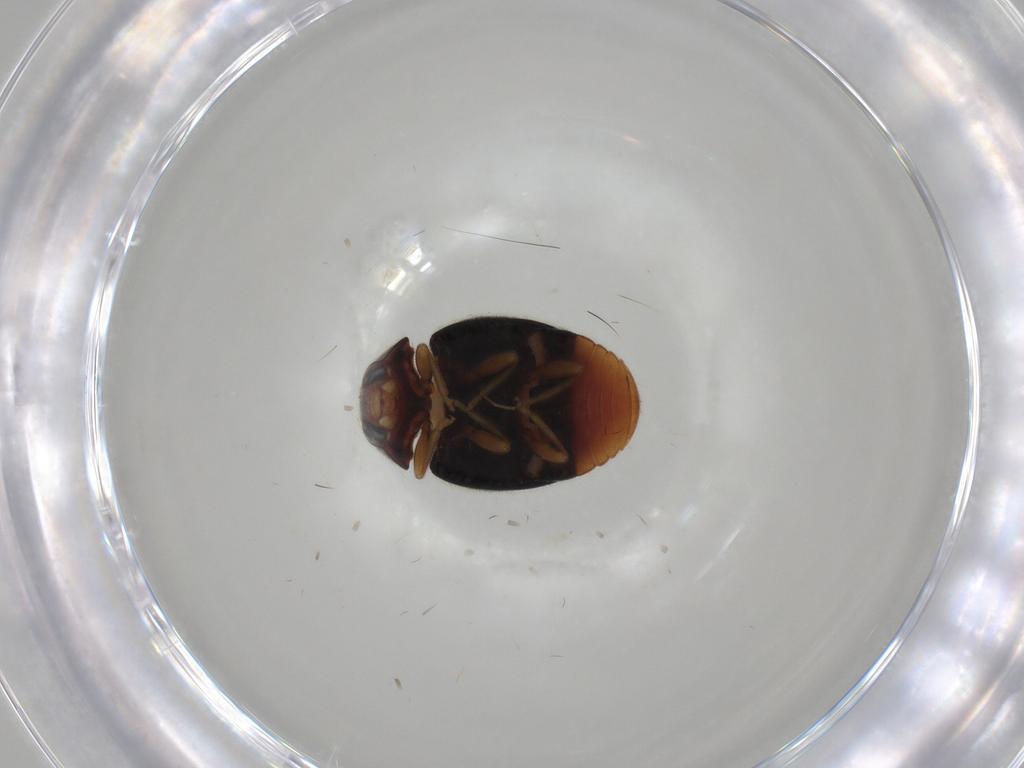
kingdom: Animalia
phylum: Arthropoda
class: Insecta
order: Coleoptera
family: Coccinellidae
